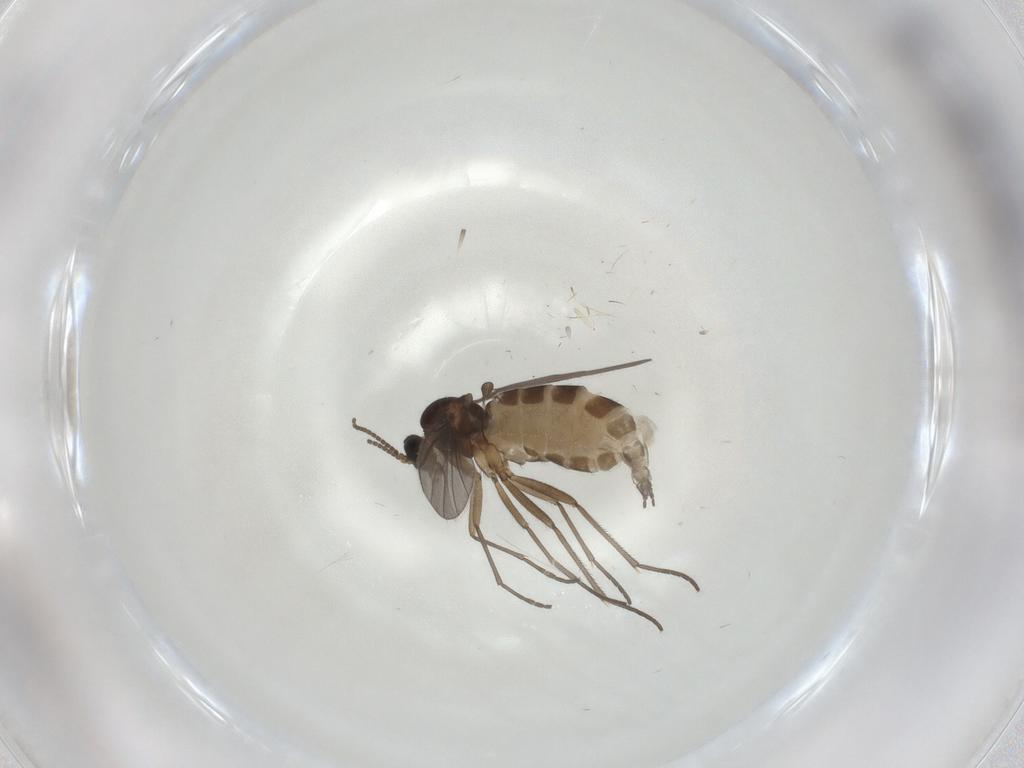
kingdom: Animalia
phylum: Arthropoda
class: Insecta
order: Diptera
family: Sciaridae
